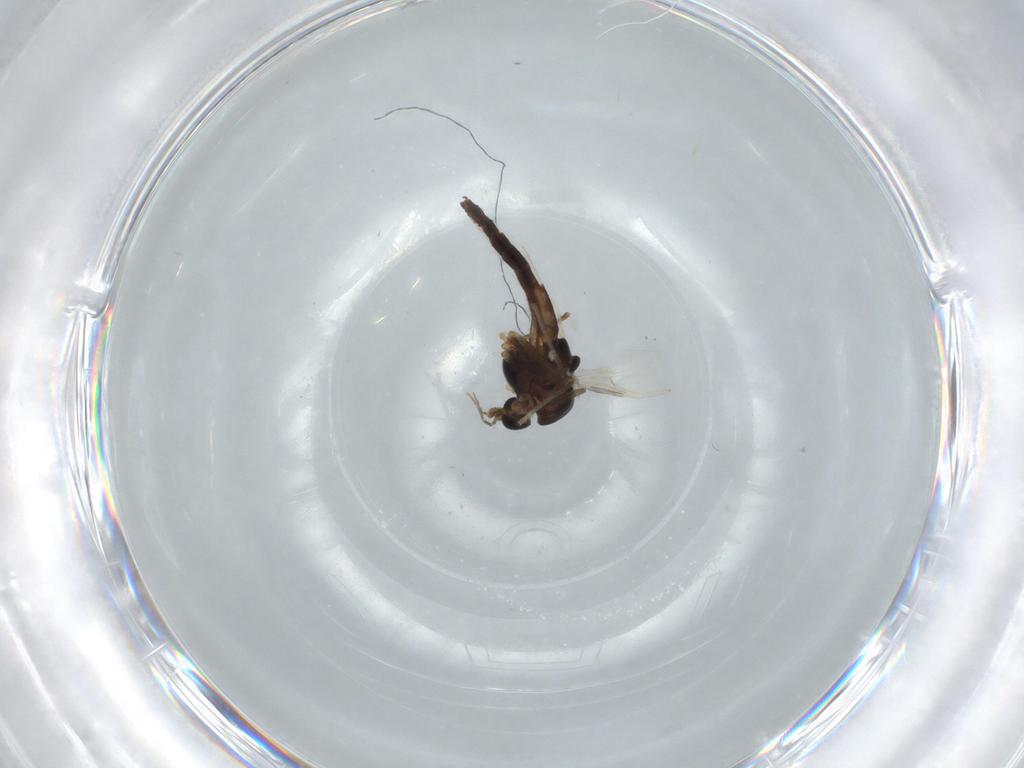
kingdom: Animalia
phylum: Arthropoda
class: Insecta
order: Diptera
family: Chironomidae
